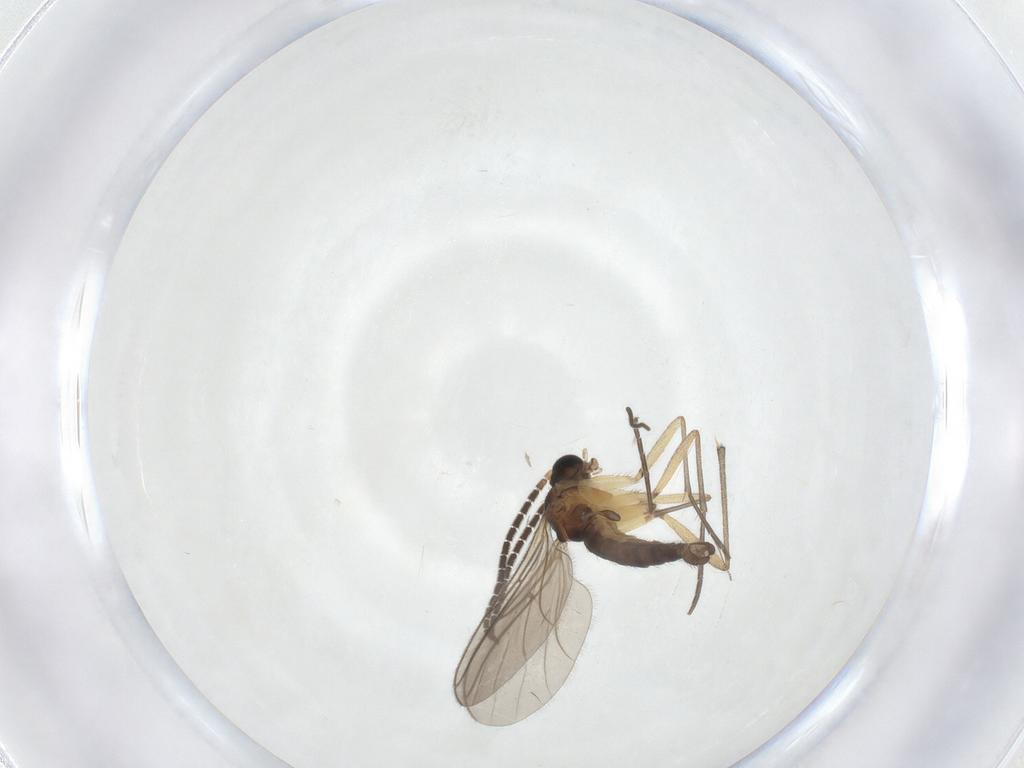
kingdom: Animalia
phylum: Arthropoda
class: Insecta
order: Diptera
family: Sciaridae
